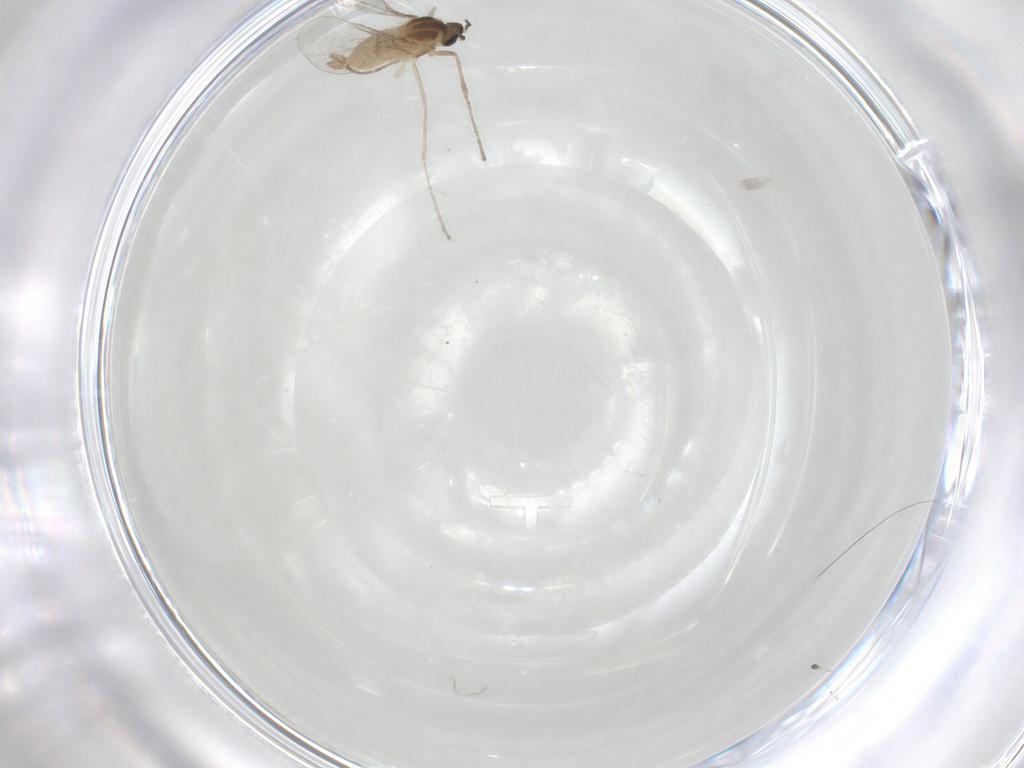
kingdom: Animalia
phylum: Arthropoda
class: Insecta
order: Diptera
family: Cecidomyiidae
